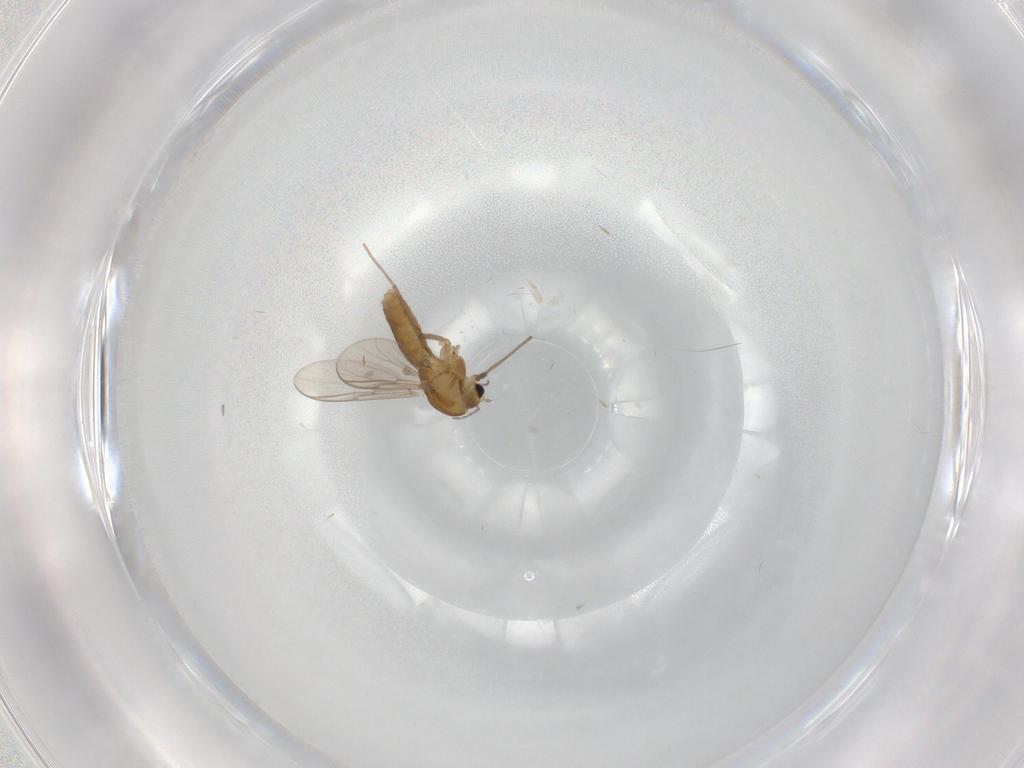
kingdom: Animalia
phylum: Arthropoda
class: Insecta
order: Diptera
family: Chironomidae
